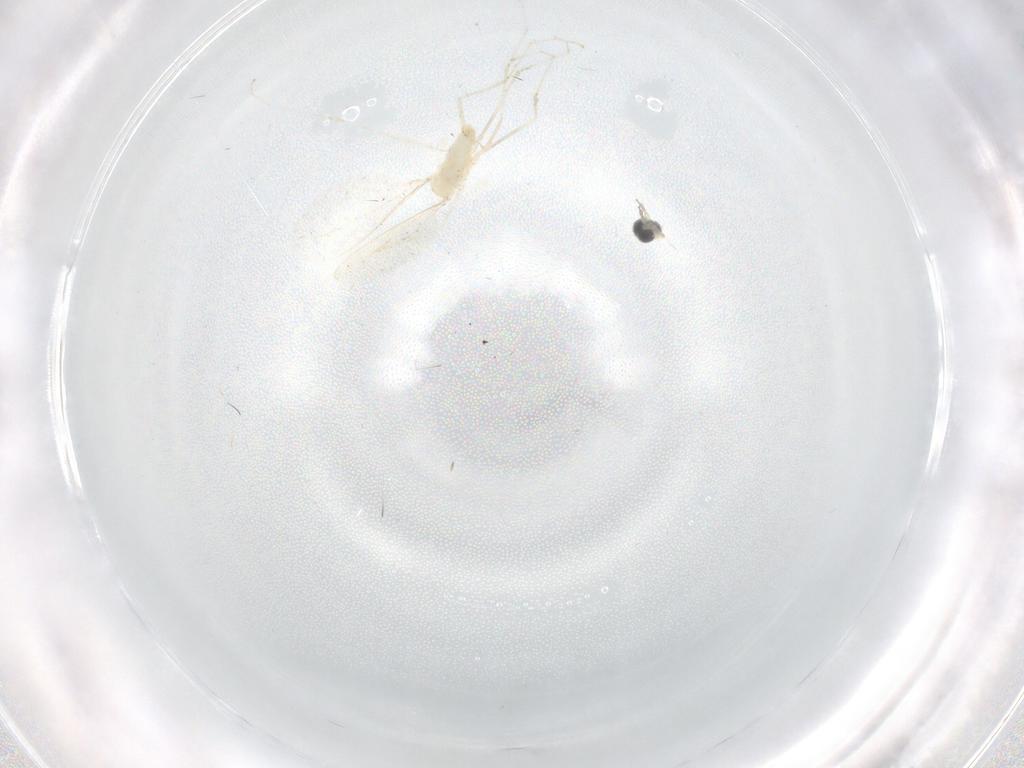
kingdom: Animalia
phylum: Arthropoda
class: Insecta
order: Diptera
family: Cecidomyiidae
